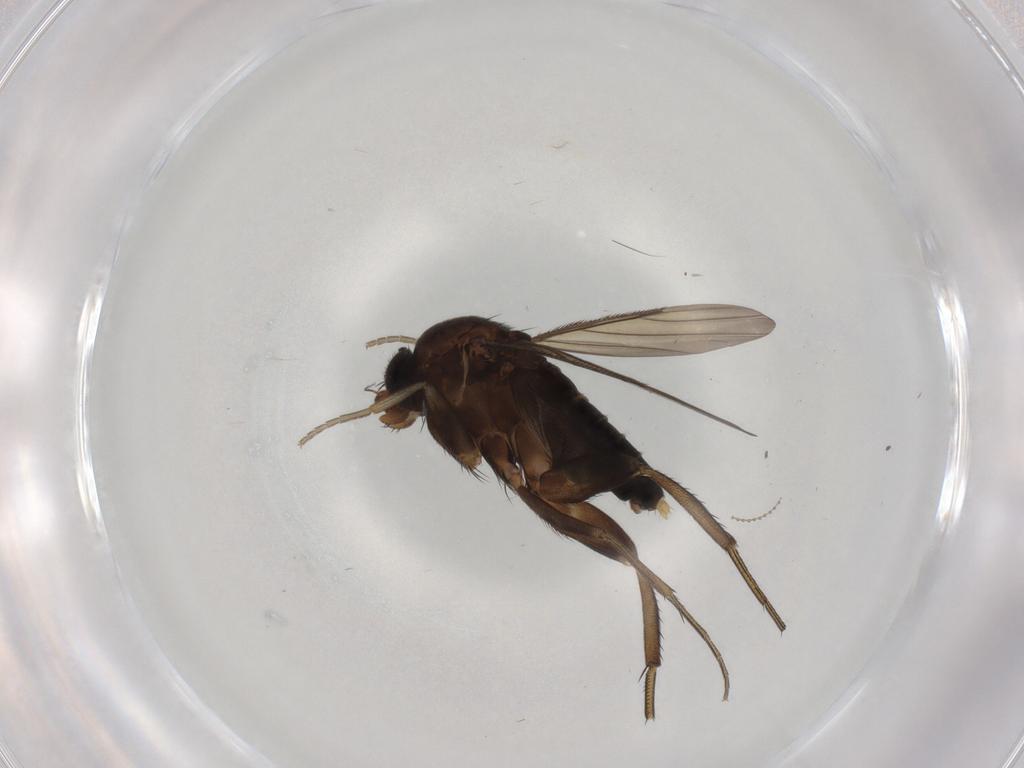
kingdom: Animalia
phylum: Arthropoda
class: Insecta
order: Diptera
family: Phoridae
